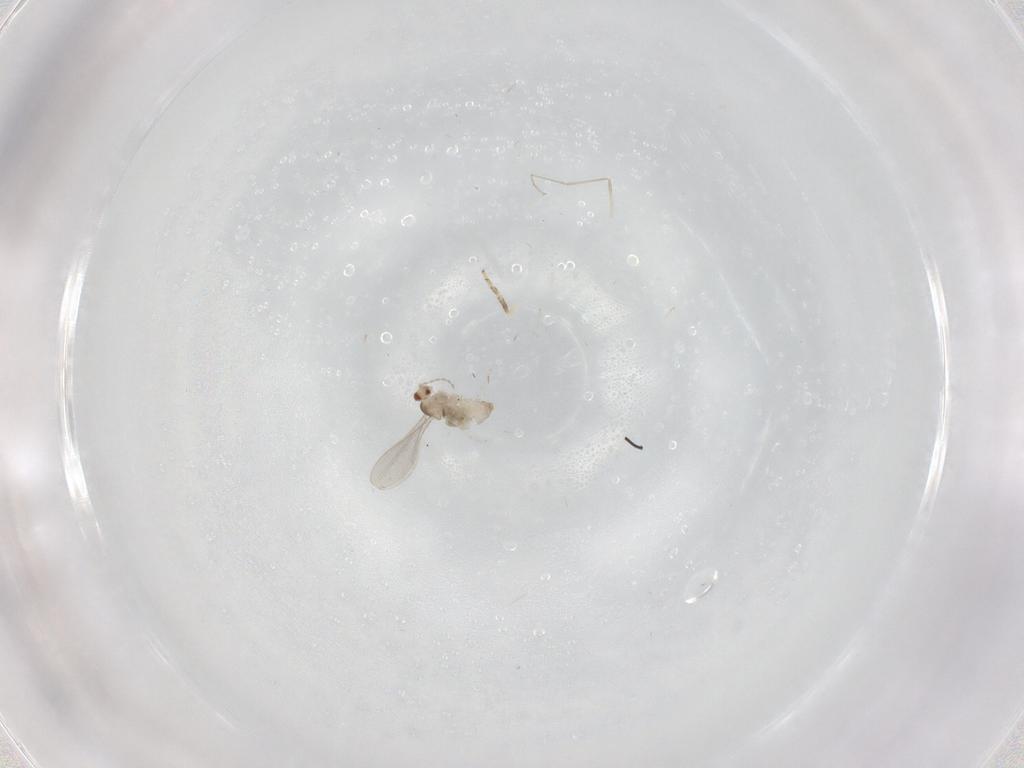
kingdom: Animalia
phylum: Arthropoda
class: Insecta
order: Diptera
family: Cecidomyiidae
